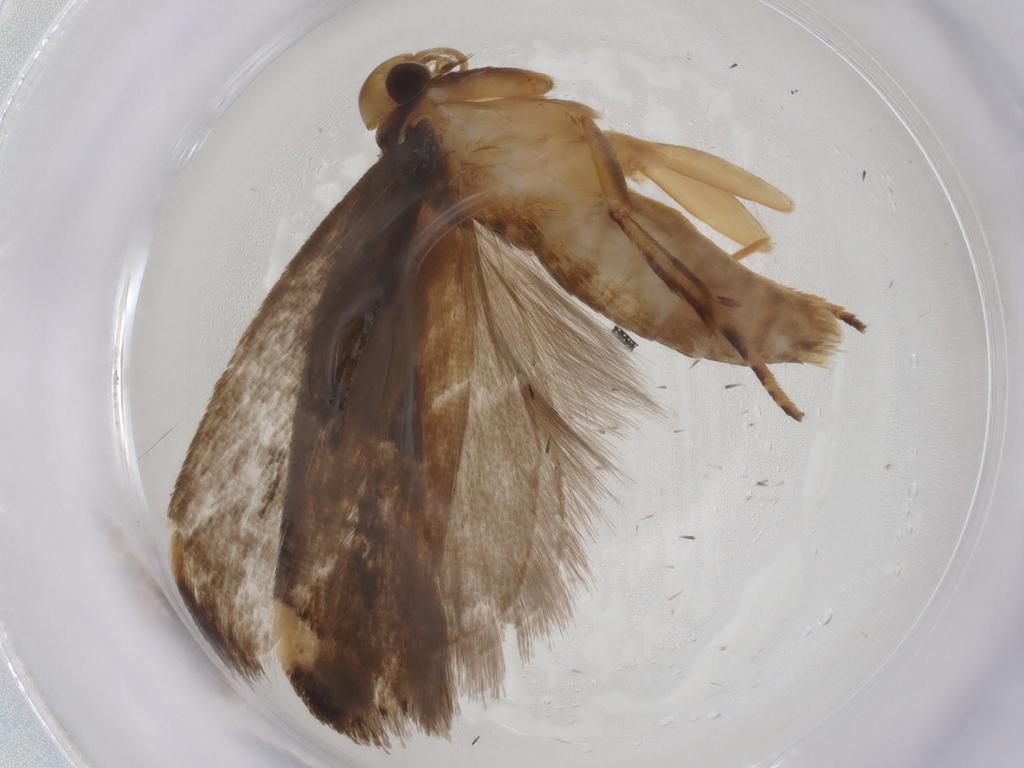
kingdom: Animalia
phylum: Arthropoda
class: Insecta
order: Lepidoptera
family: Gelechiidae
